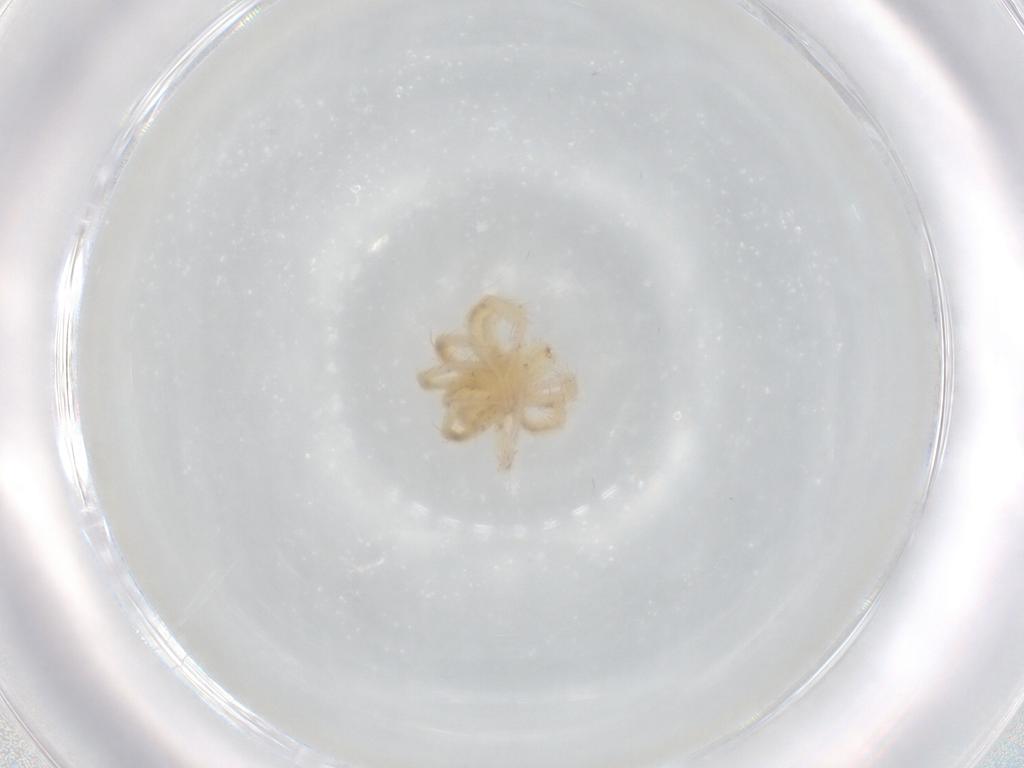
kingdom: Animalia
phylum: Arthropoda
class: Arachnida
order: Trombidiformes
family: Anystidae
